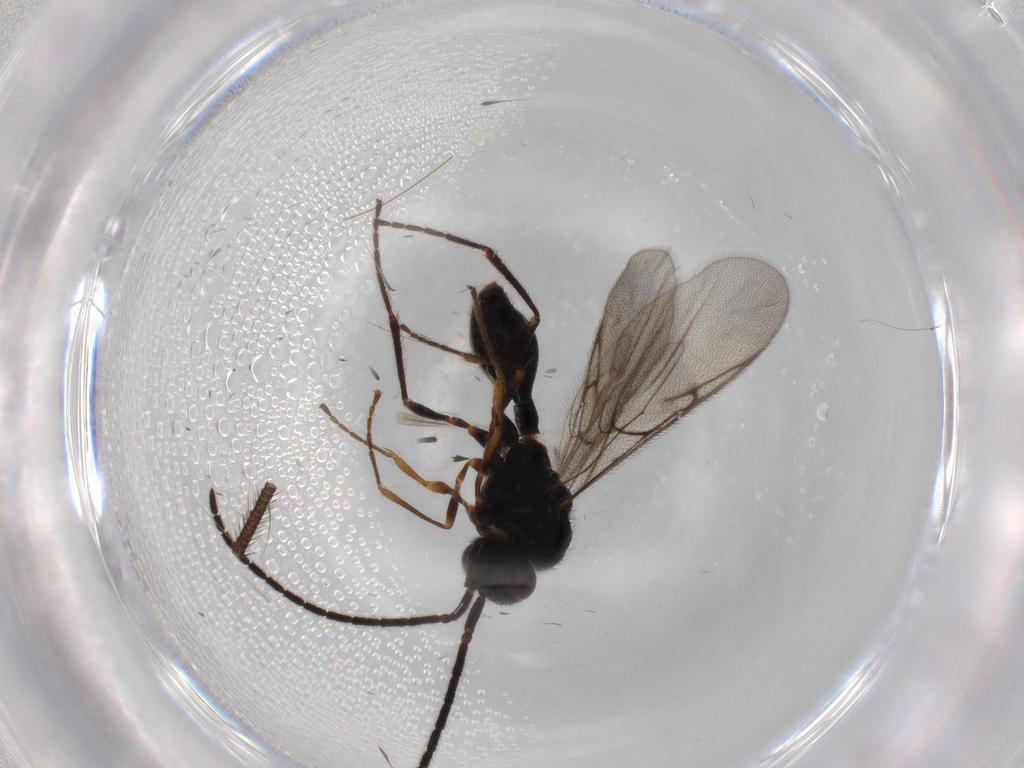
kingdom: Animalia
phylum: Arthropoda
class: Insecta
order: Hymenoptera
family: Diapriidae
